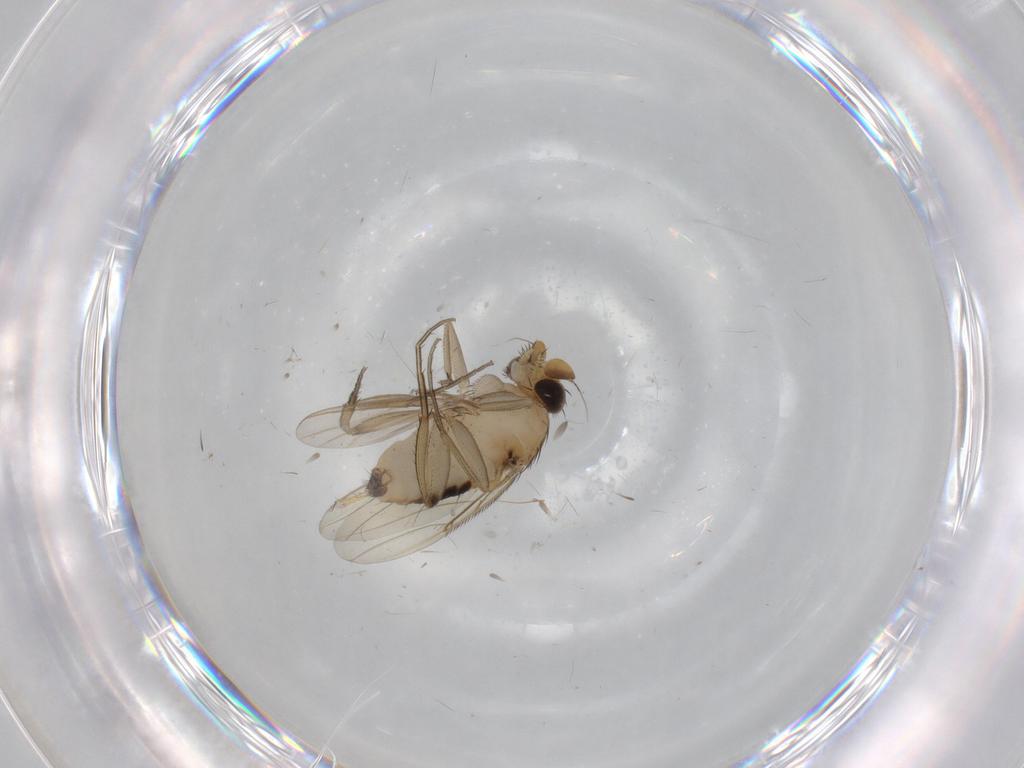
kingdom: Animalia
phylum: Arthropoda
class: Insecta
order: Diptera
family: Phoridae
